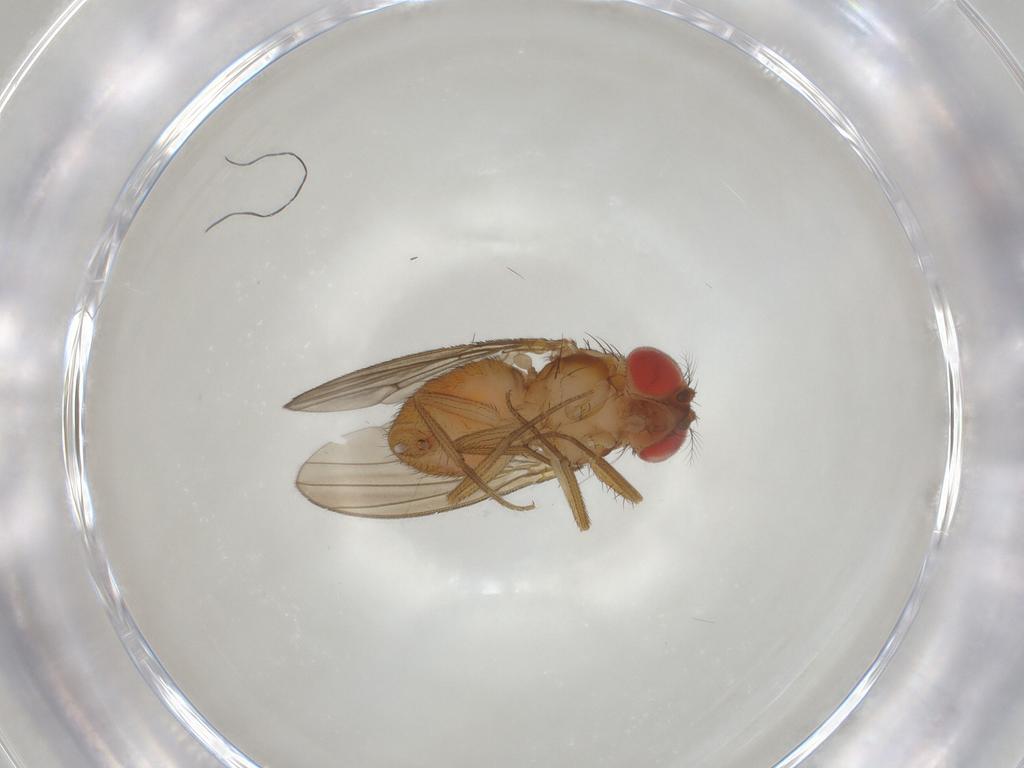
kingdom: Animalia
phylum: Arthropoda
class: Insecta
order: Diptera
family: Drosophilidae
